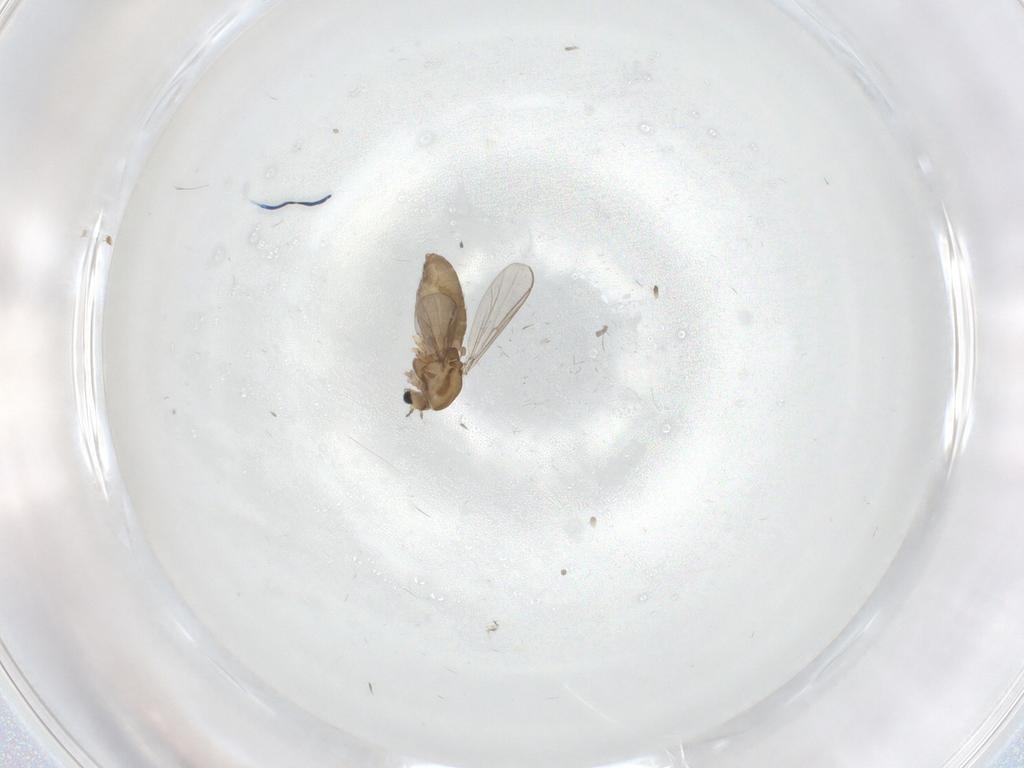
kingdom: Animalia
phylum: Arthropoda
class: Insecta
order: Diptera
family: Chironomidae
